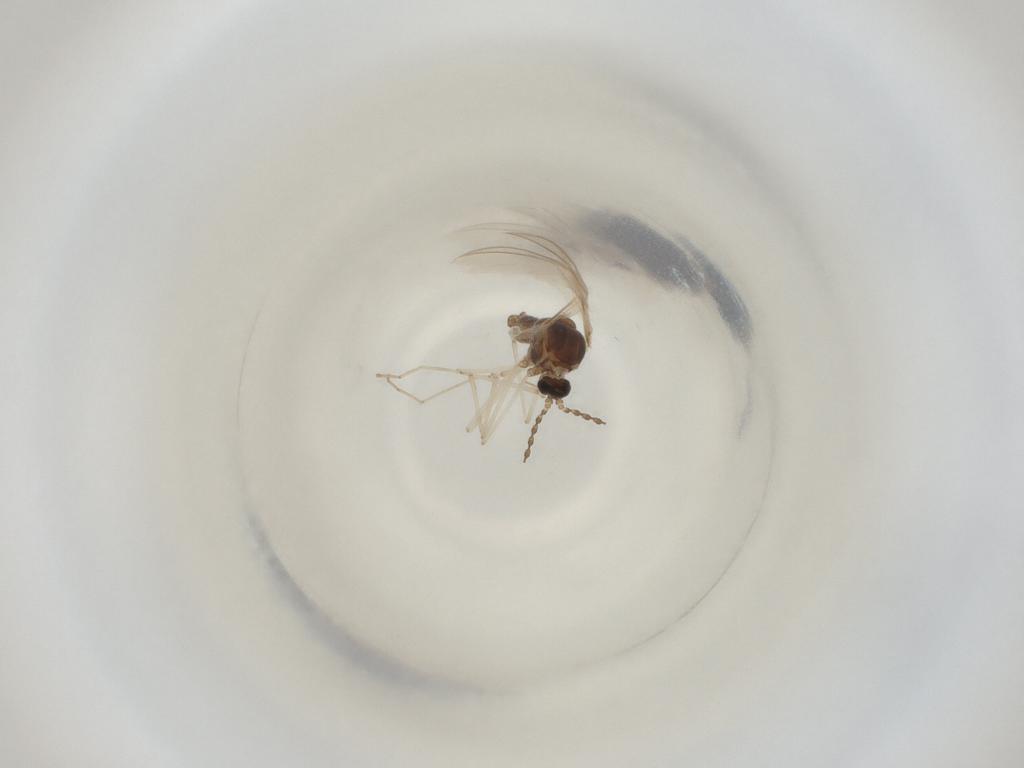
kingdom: Animalia
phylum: Arthropoda
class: Insecta
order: Diptera
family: Cecidomyiidae
